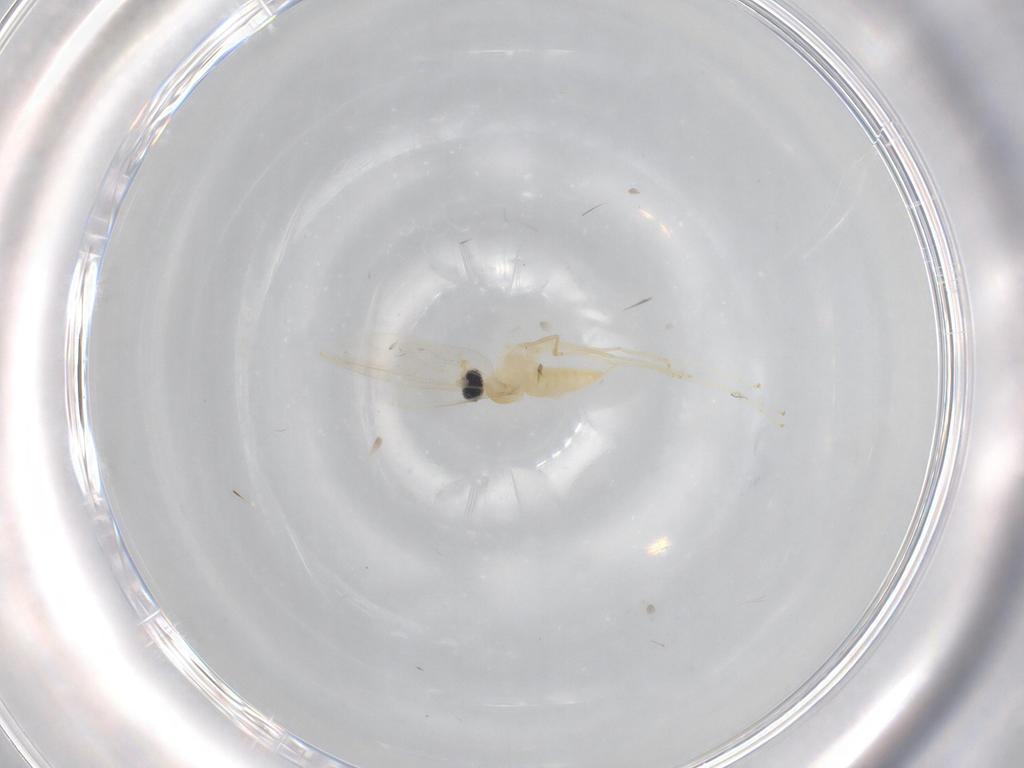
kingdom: Animalia
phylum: Arthropoda
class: Insecta
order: Diptera
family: Cecidomyiidae
